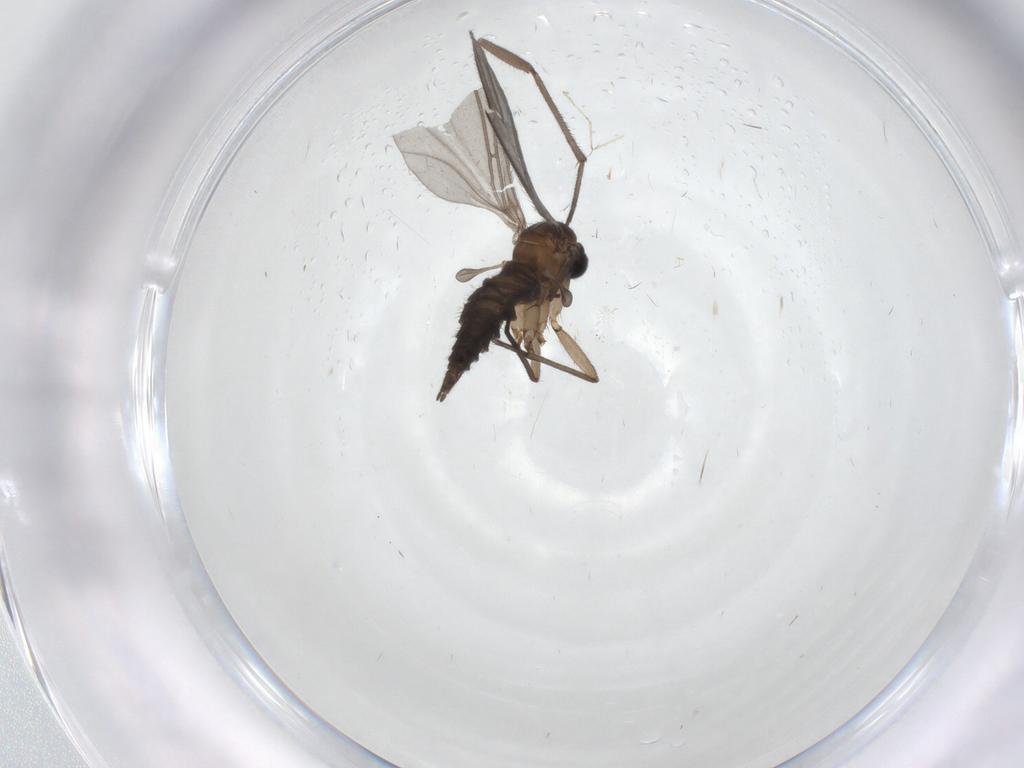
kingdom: Animalia
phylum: Arthropoda
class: Insecta
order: Diptera
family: Sciaridae
